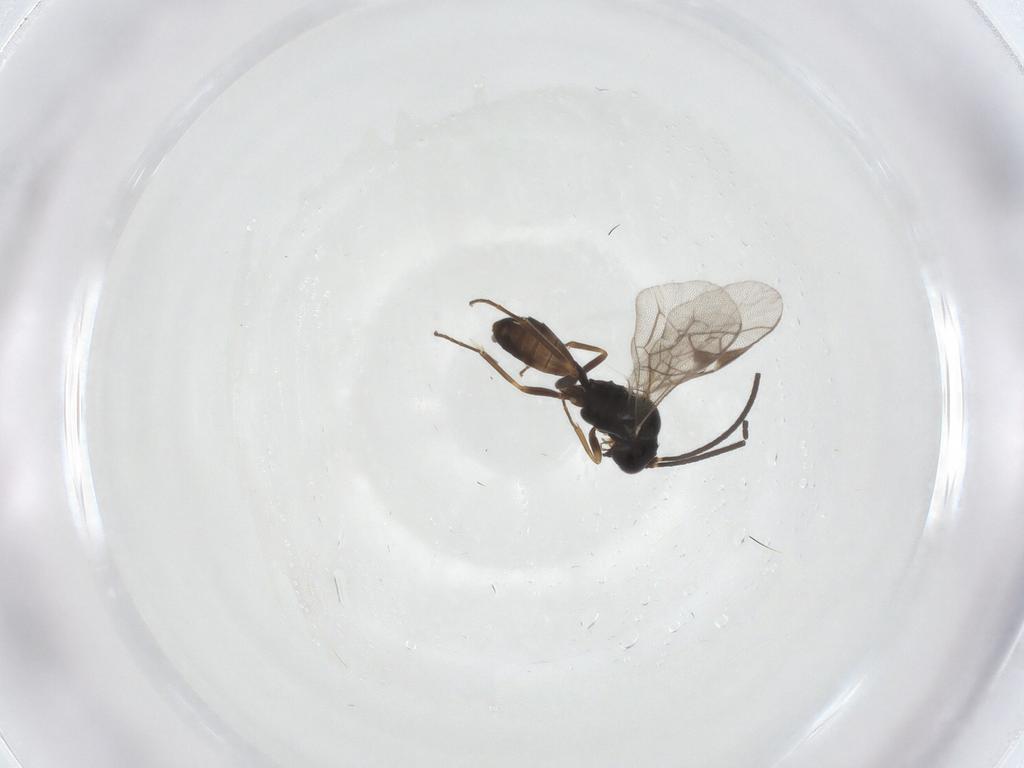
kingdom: Animalia
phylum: Arthropoda
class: Insecta
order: Hymenoptera
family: Ichneumonidae
